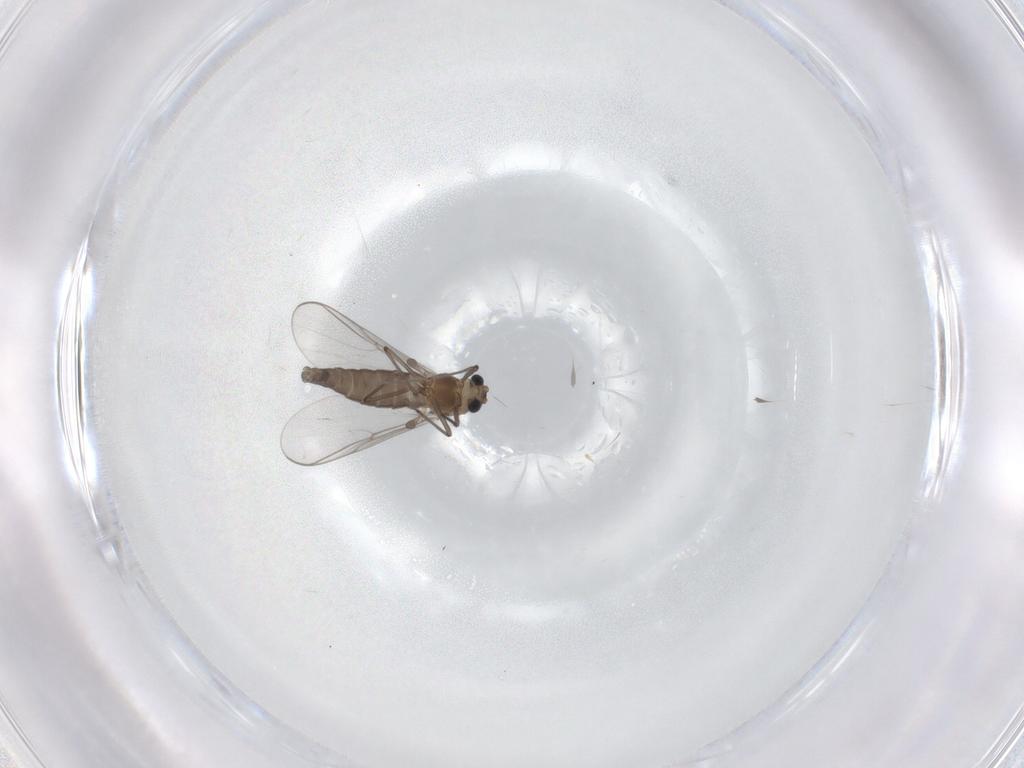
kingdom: Animalia
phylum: Arthropoda
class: Insecta
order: Diptera
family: Chironomidae
